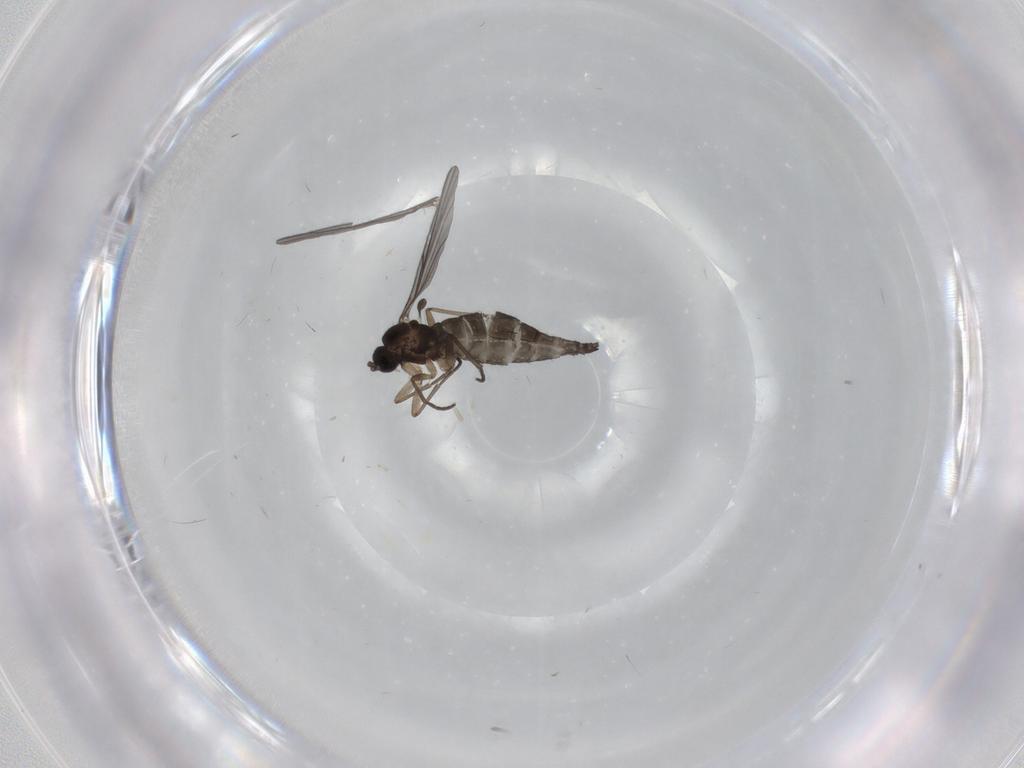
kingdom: Animalia
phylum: Arthropoda
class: Insecta
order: Diptera
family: Sciaridae
